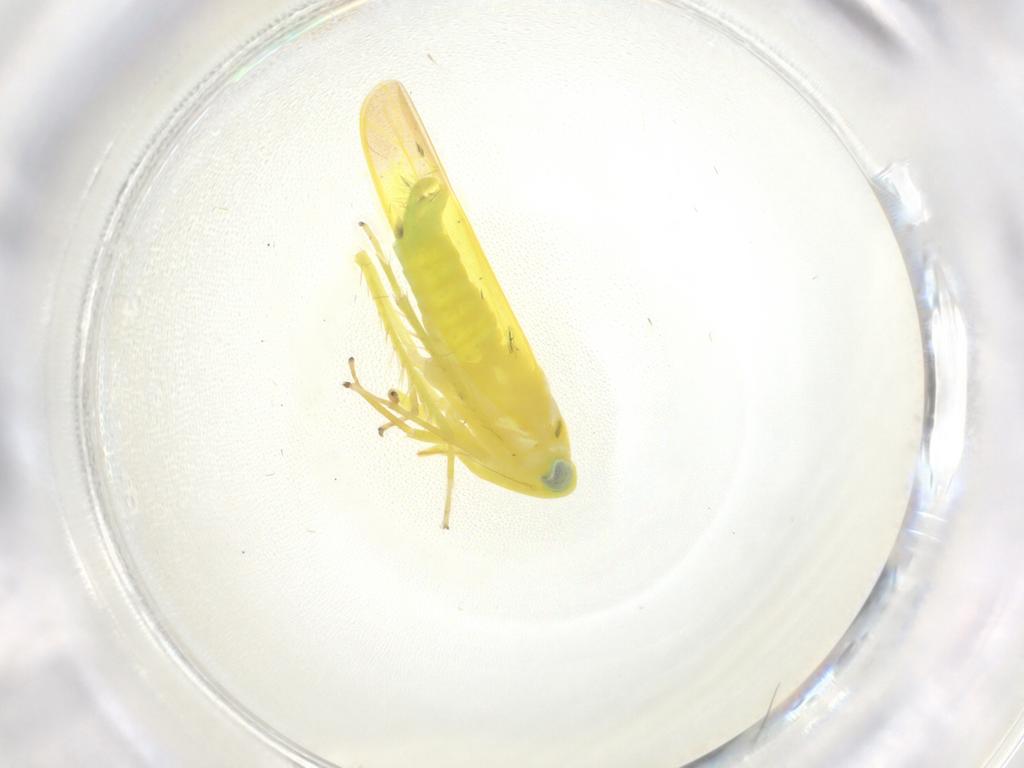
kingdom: Animalia
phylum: Arthropoda
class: Insecta
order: Hemiptera
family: Cicadellidae
